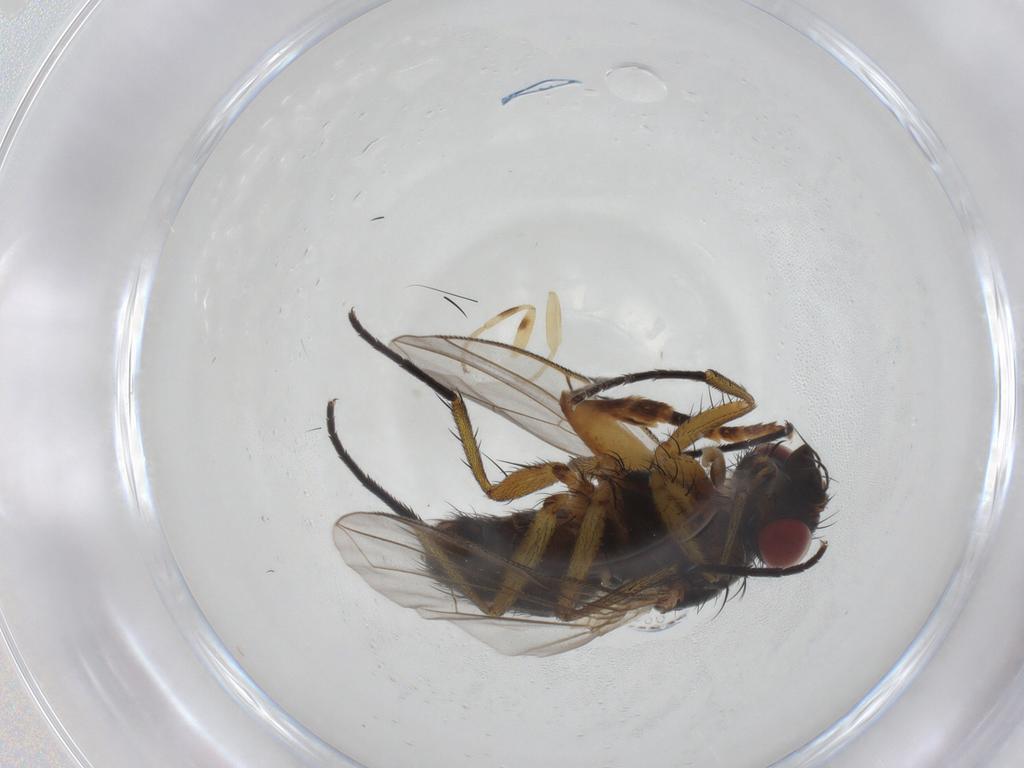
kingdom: Animalia
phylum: Arthropoda
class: Insecta
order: Diptera
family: Anthomyiidae
